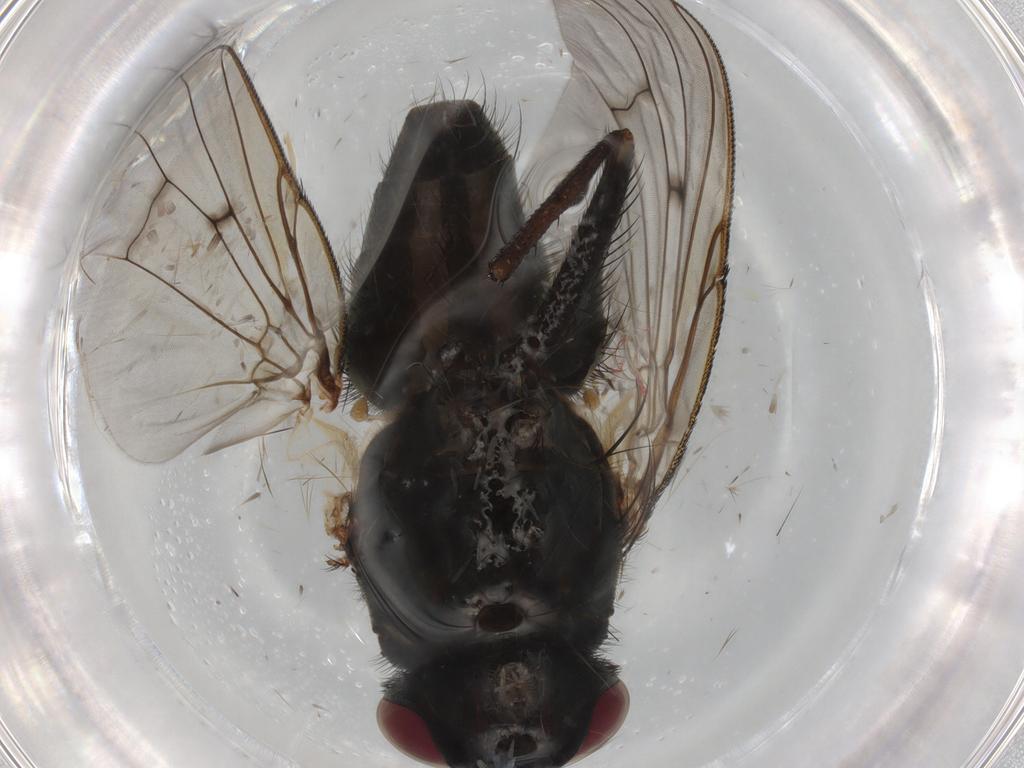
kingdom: Animalia
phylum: Arthropoda
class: Insecta
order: Diptera
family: Muscidae
